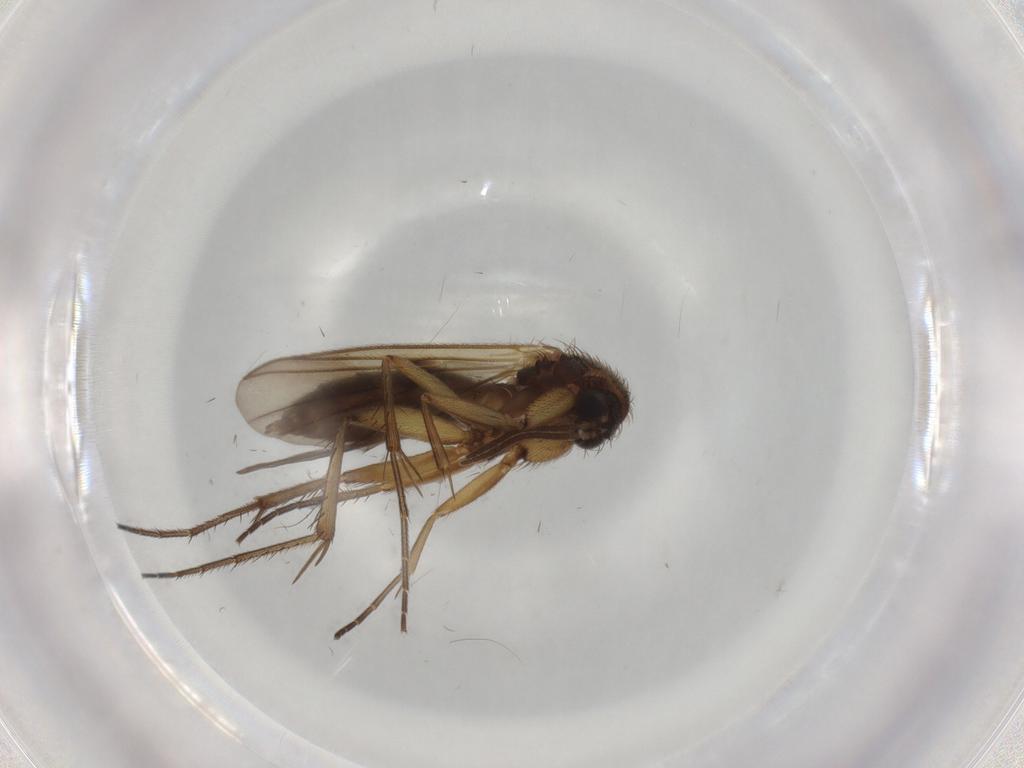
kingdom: Animalia
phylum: Arthropoda
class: Insecta
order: Diptera
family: Mycetophilidae
